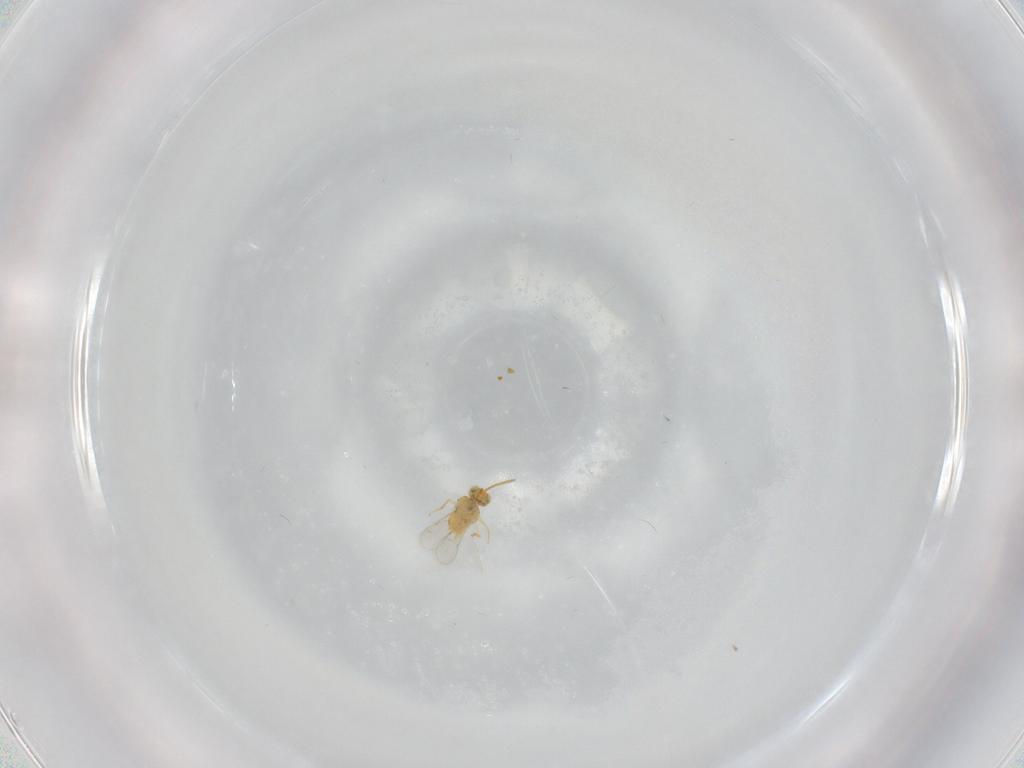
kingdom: Animalia
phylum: Arthropoda
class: Insecta
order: Hymenoptera
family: Aphelinidae
